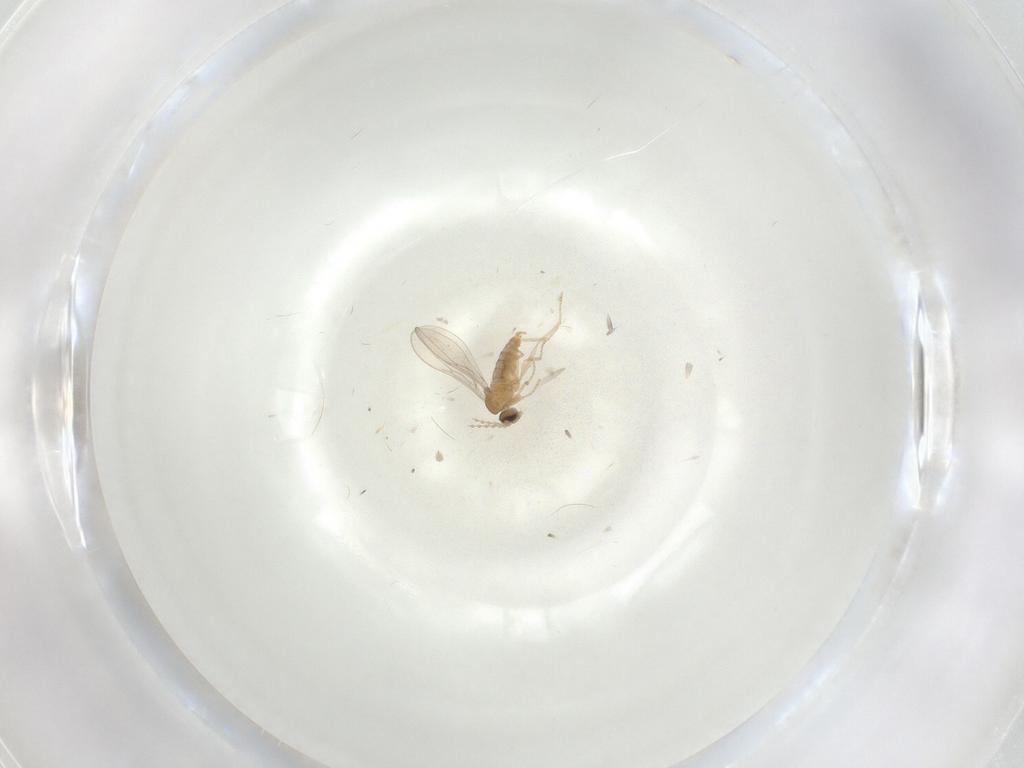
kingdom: Animalia
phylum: Arthropoda
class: Insecta
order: Diptera
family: Cecidomyiidae
